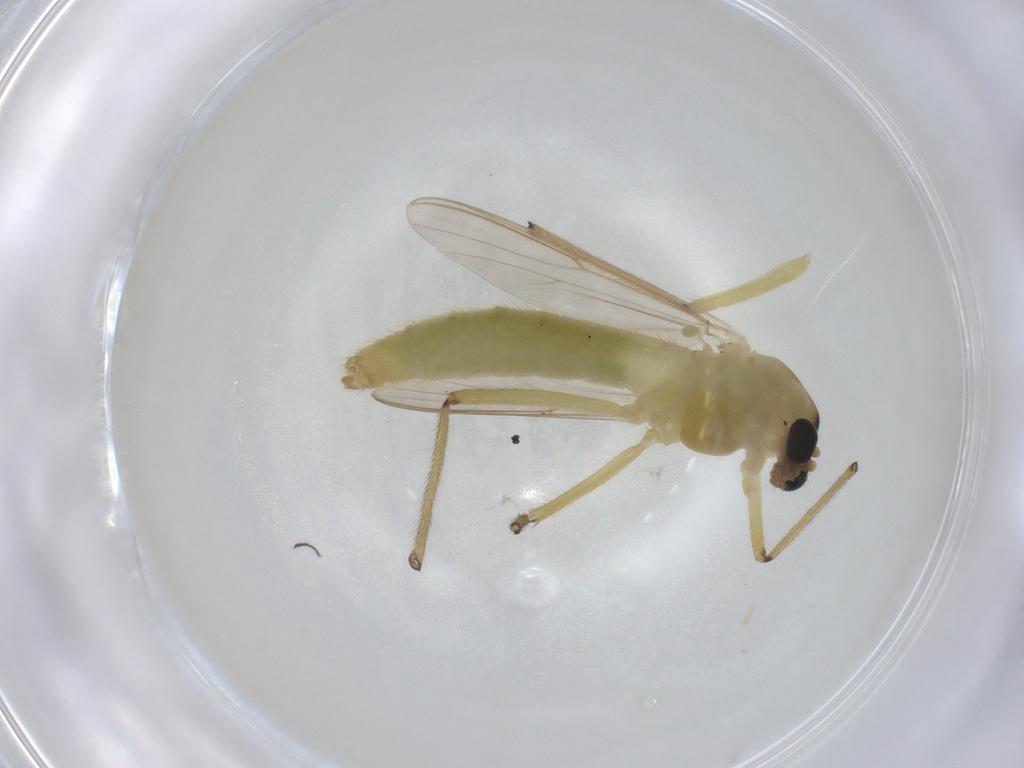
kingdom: Animalia
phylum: Arthropoda
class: Insecta
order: Diptera
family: Chironomidae
